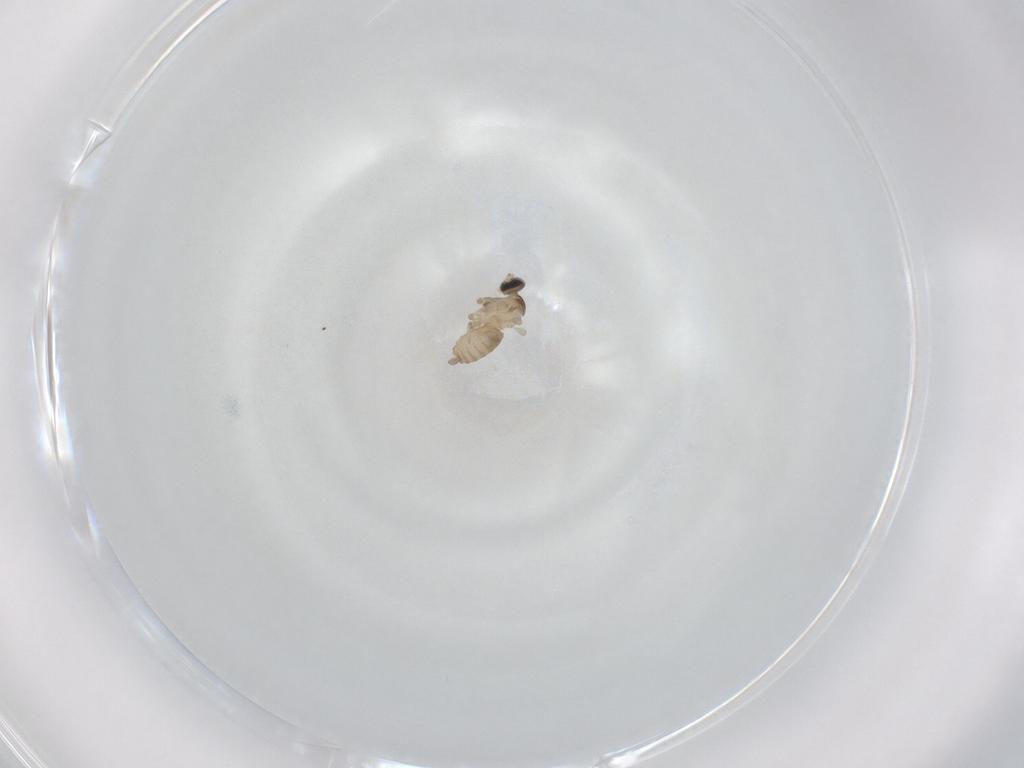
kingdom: Animalia
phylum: Arthropoda
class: Insecta
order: Diptera
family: Cecidomyiidae
